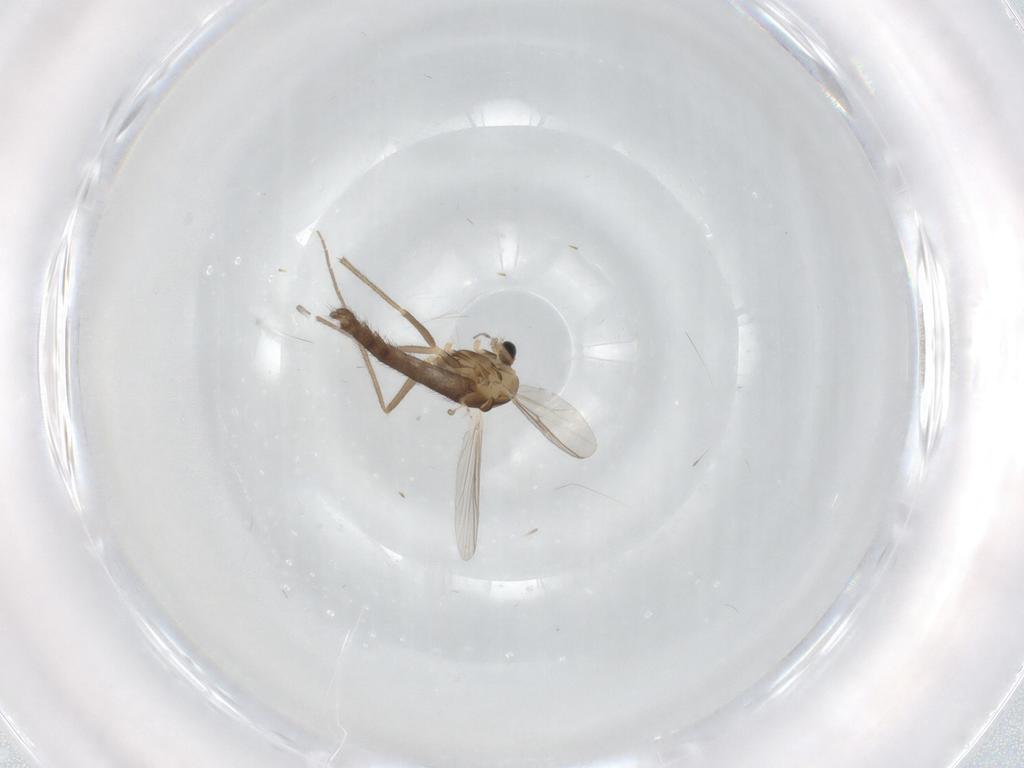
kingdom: Animalia
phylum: Arthropoda
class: Insecta
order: Diptera
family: Chironomidae
